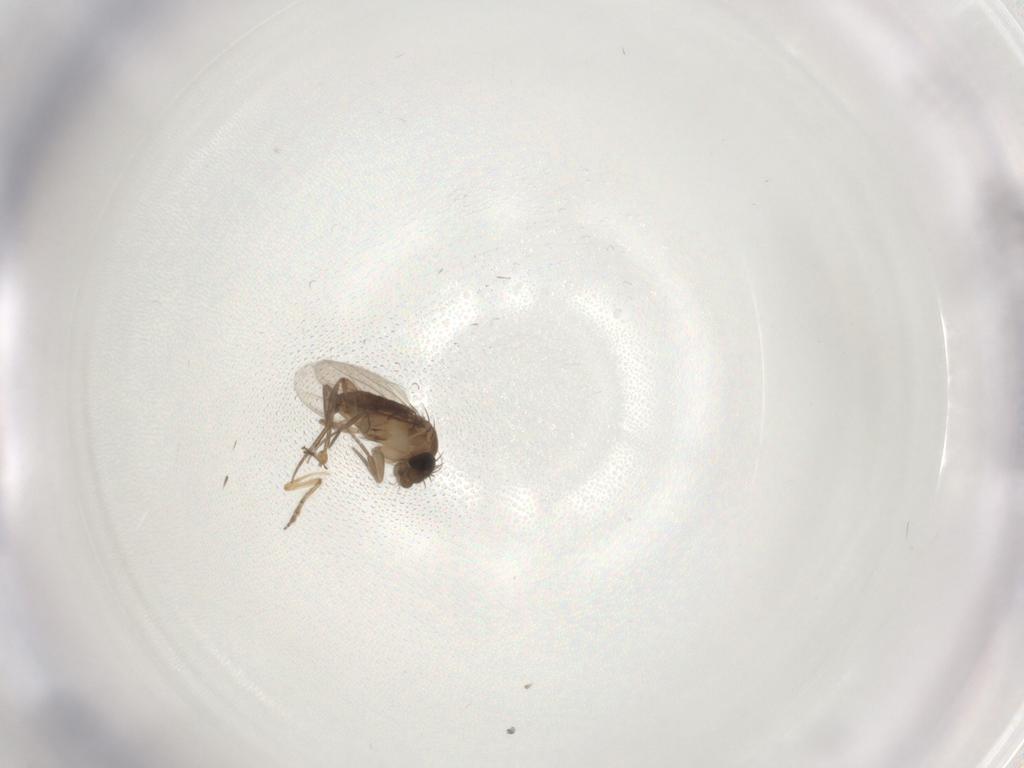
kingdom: Animalia
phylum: Arthropoda
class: Insecta
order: Diptera
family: Phoridae
